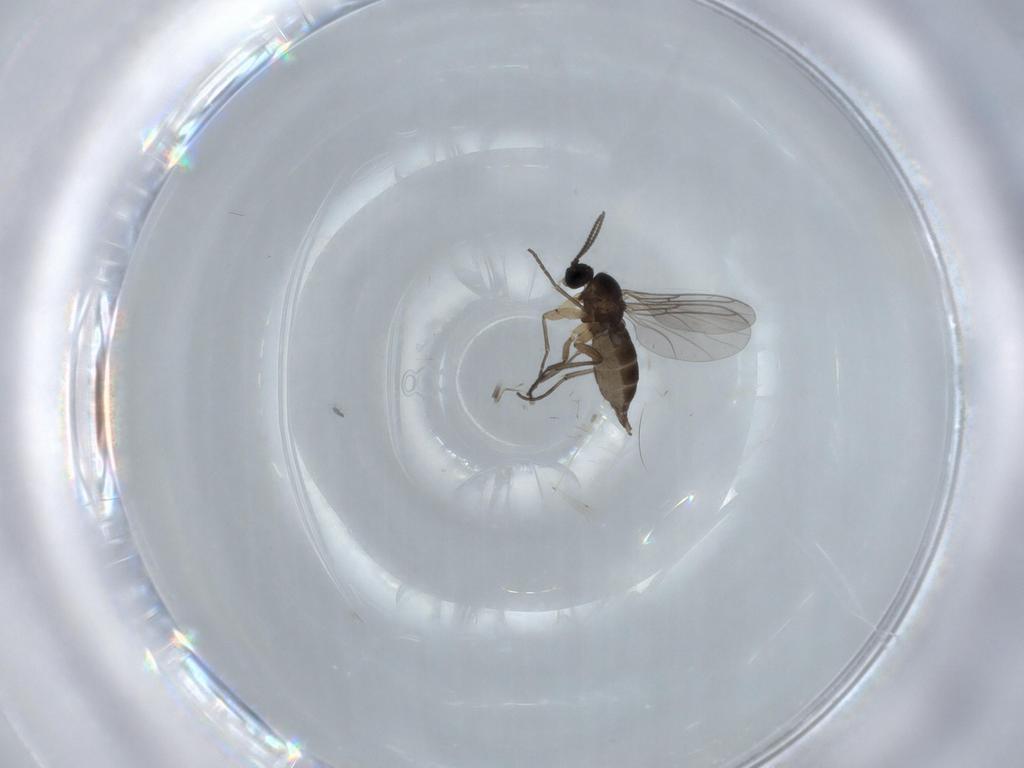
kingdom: Animalia
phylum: Arthropoda
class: Insecta
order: Diptera
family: Sciaridae
